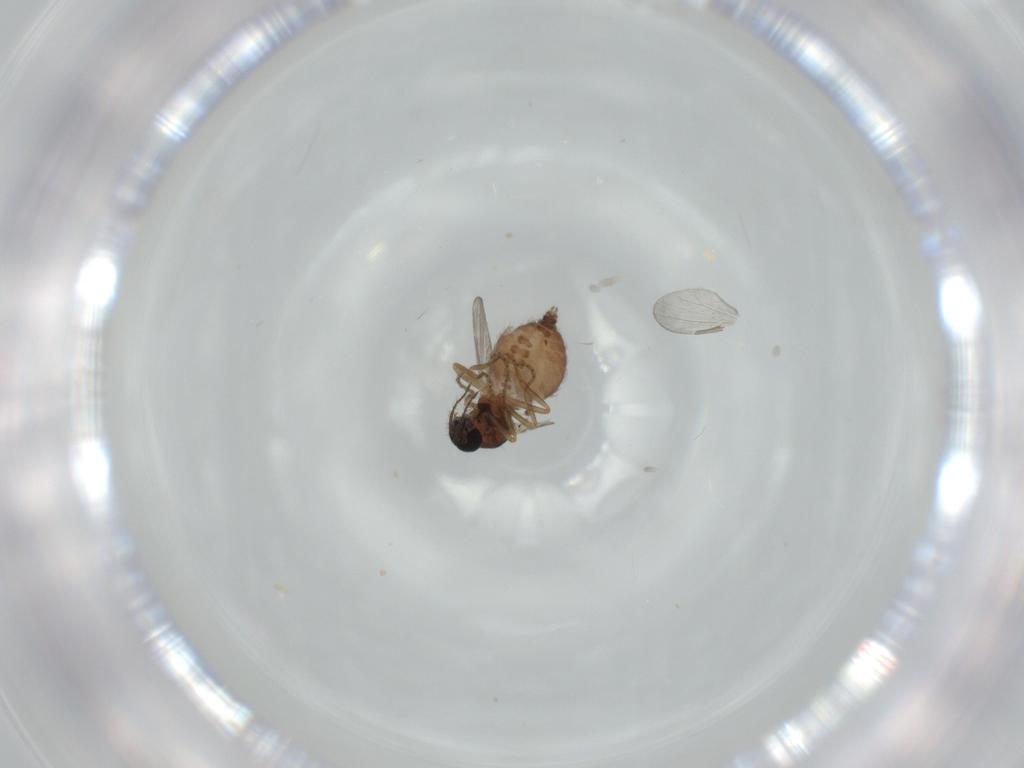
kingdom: Animalia
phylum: Arthropoda
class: Insecta
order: Diptera
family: Ceratopogonidae
